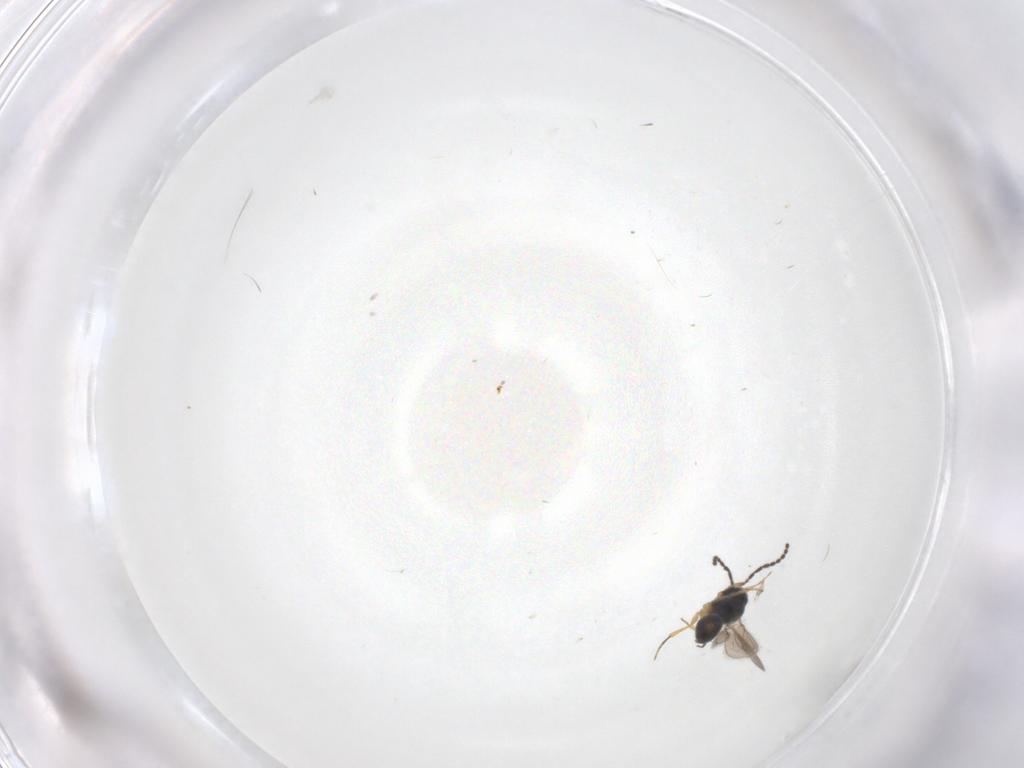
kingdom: Animalia
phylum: Arthropoda
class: Insecta
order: Hymenoptera
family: Scelionidae
